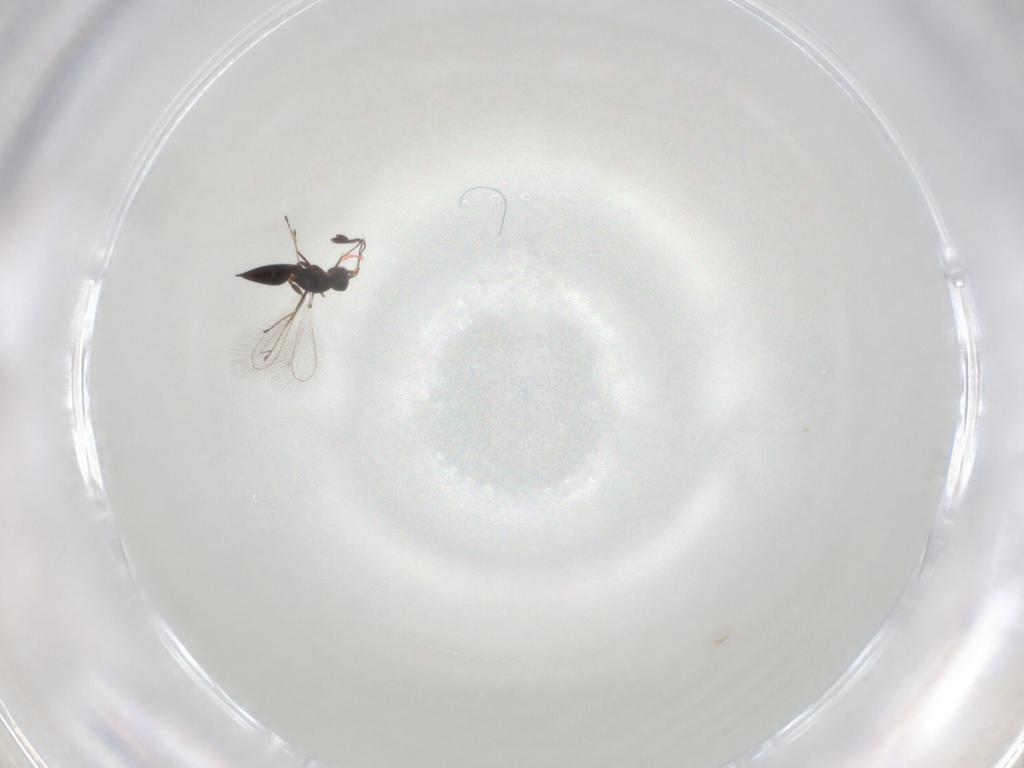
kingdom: Animalia
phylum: Arthropoda
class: Insecta
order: Hymenoptera
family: Mymaridae
